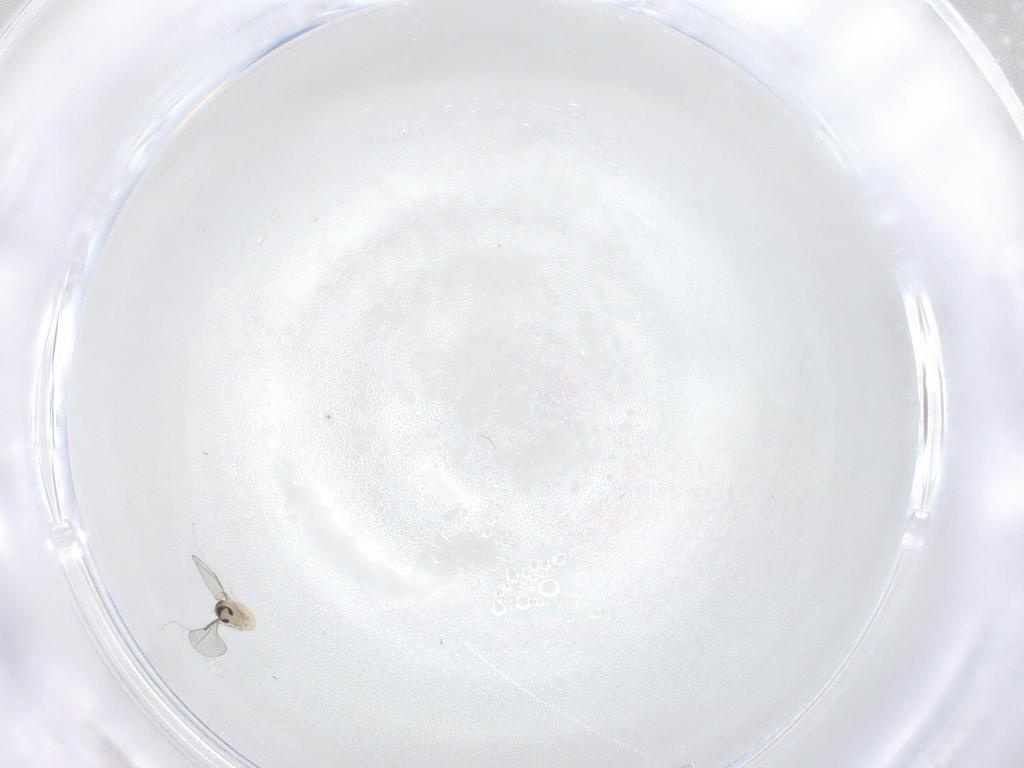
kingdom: Animalia
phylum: Arthropoda
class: Insecta
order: Diptera
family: Cecidomyiidae
